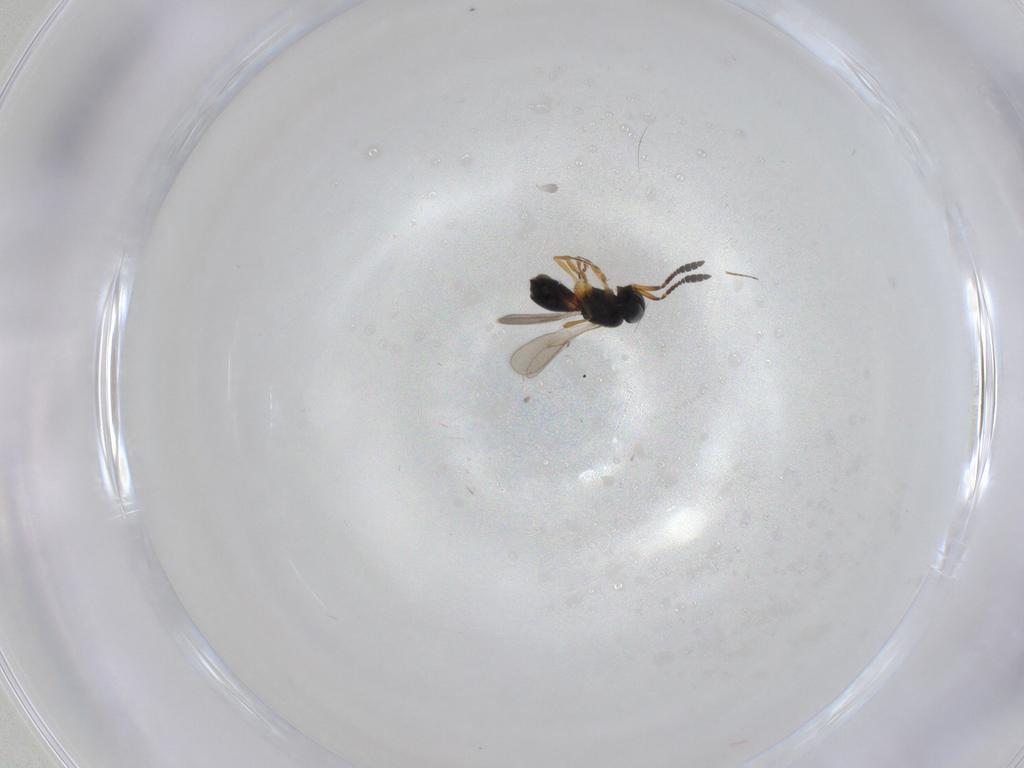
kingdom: Animalia
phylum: Arthropoda
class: Insecta
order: Hymenoptera
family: Scelionidae
